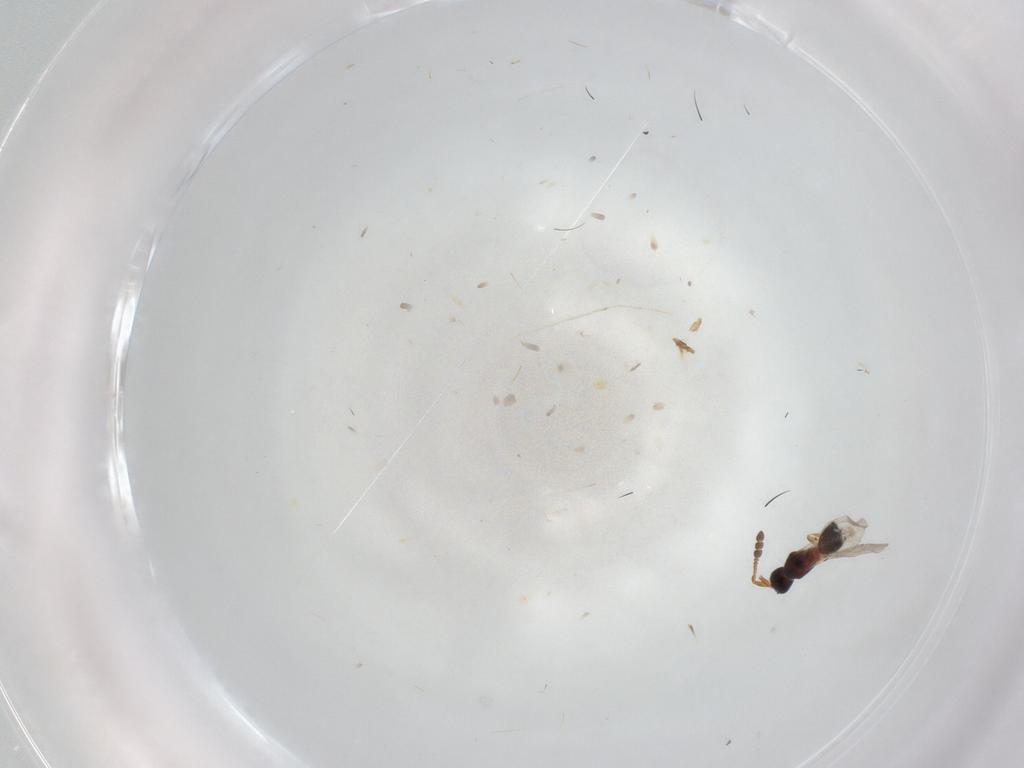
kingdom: Animalia
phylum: Arthropoda
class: Insecta
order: Hymenoptera
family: Diapriidae
